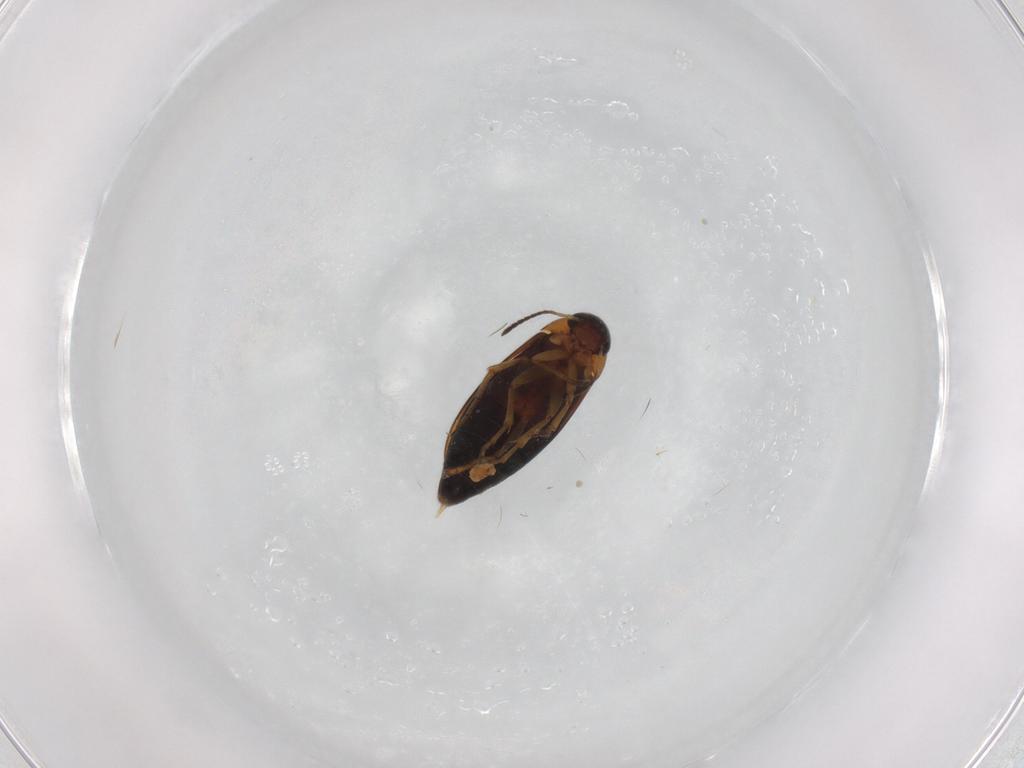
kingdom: Animalia
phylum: Arthropoda
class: Insecta
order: Coleoptera
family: Scraptiidae
